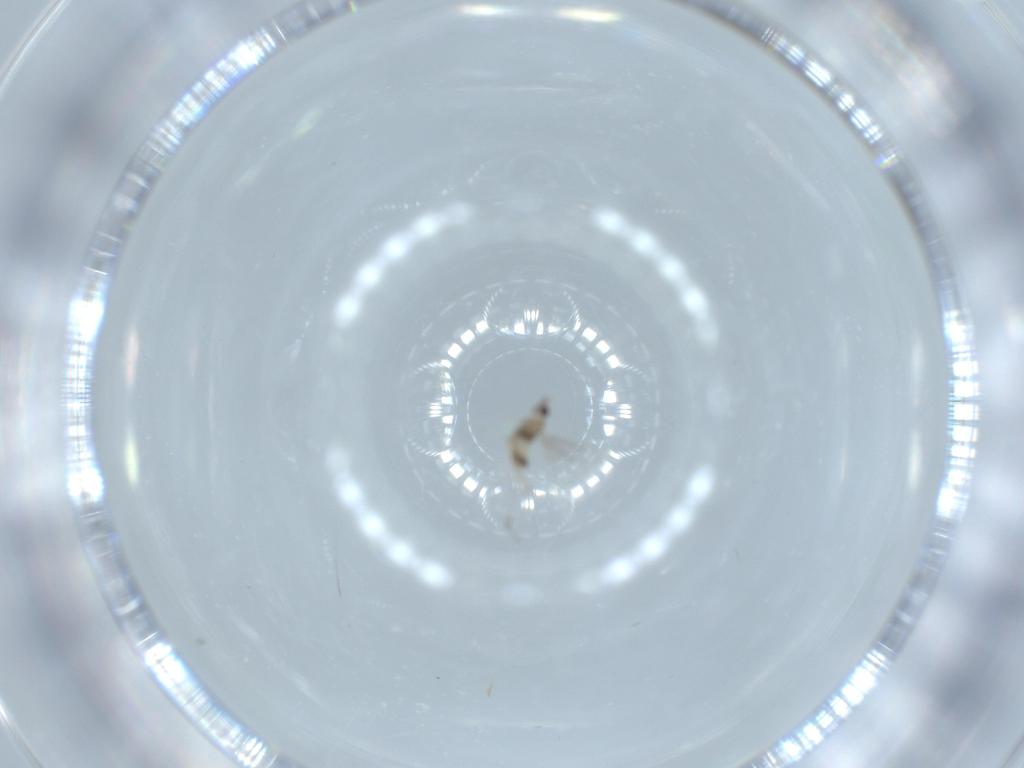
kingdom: Animalia
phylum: Arthropoda
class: Insecta
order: Hymenoptera
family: Mymaridae
